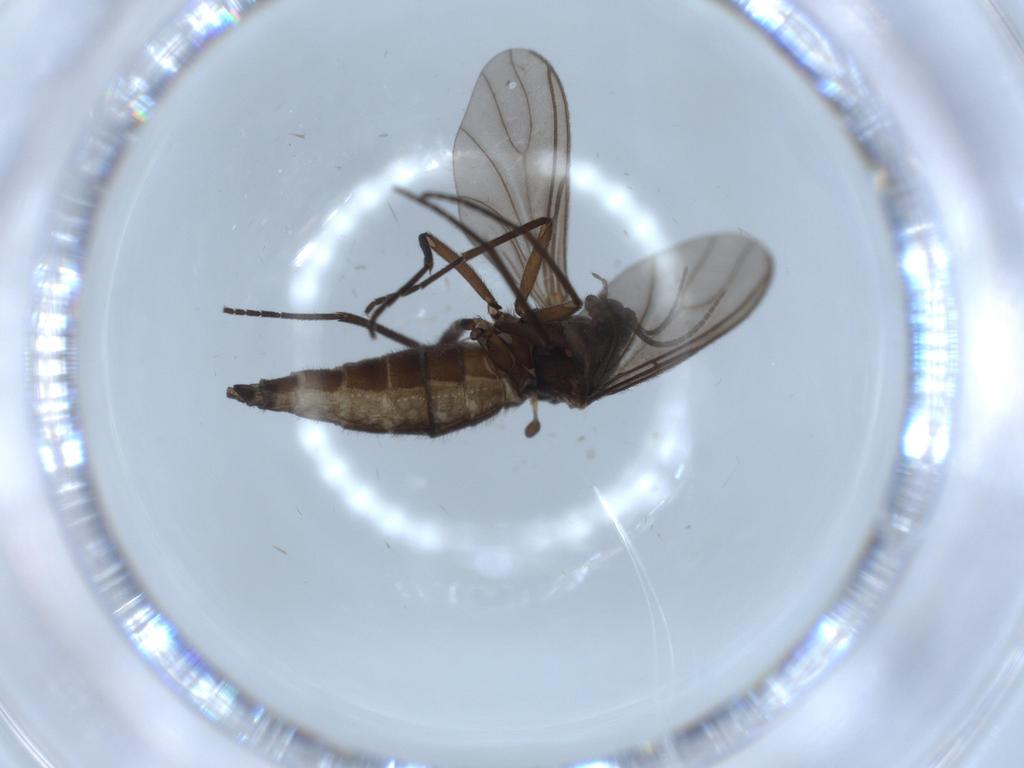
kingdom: Animalia
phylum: Arthropoda
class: Insecta
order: Diptera
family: Sciaridae
